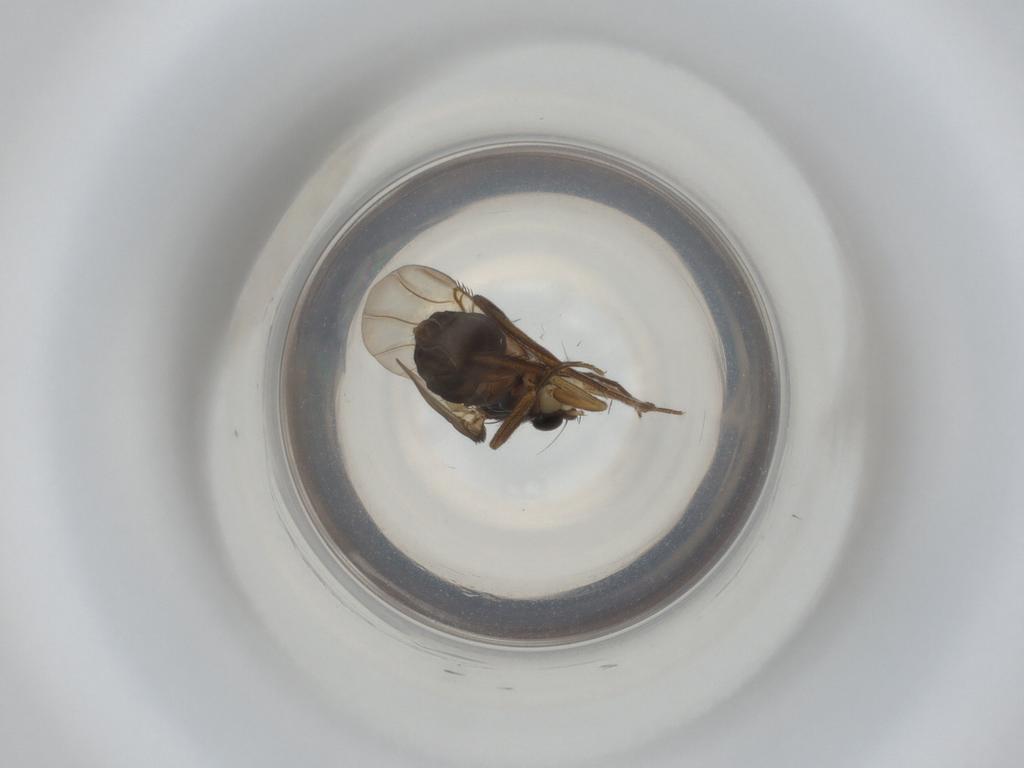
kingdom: Animalia
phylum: Arthropoda
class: Insecta
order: Diptera
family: Phoridae
